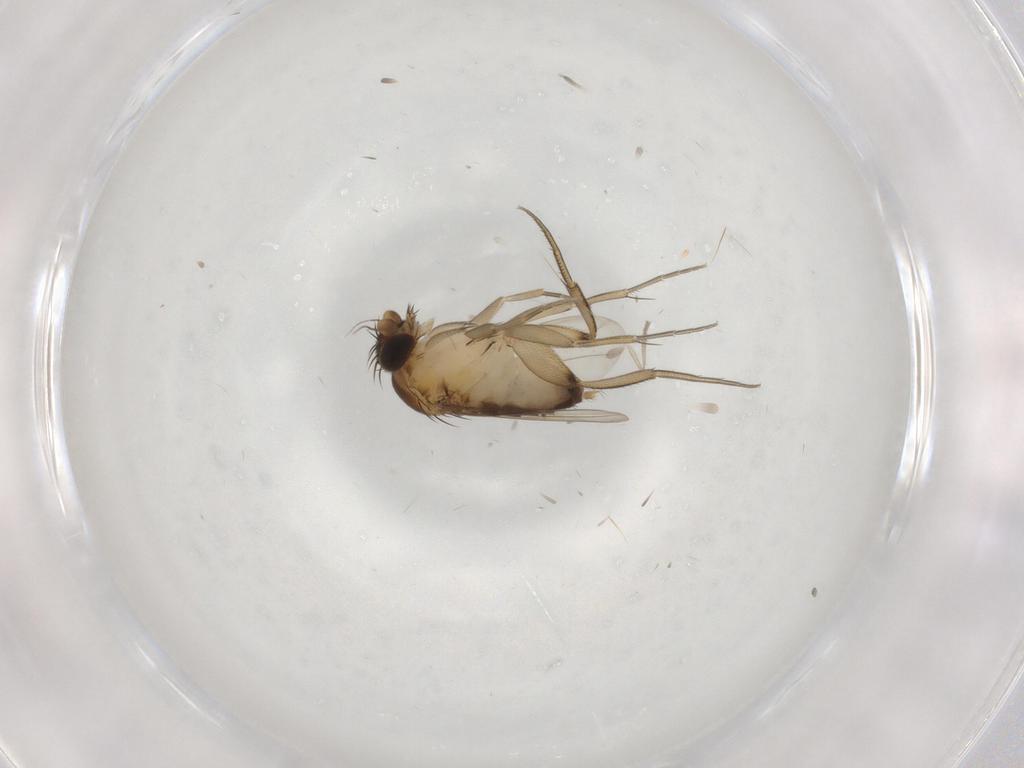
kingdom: Animalia
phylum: Arthropoda
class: Insecta
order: Diptera
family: Phoridae
